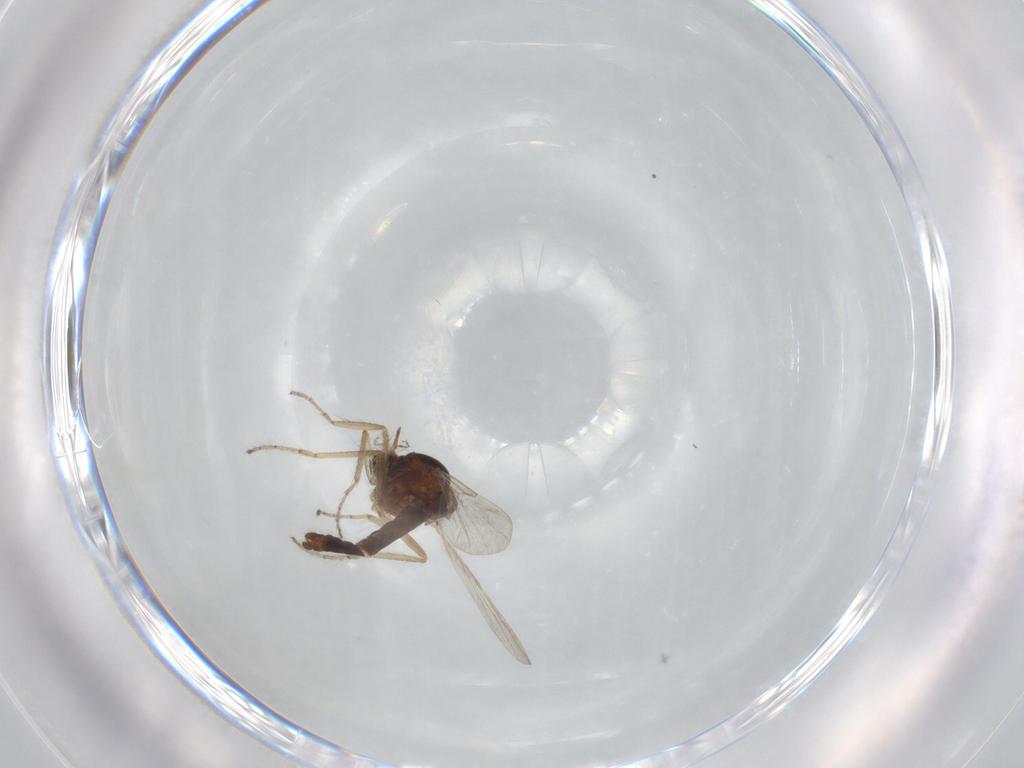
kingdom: Animalia
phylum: Arthropoda
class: Insecta
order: Diptera
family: Ceratopogonidae
